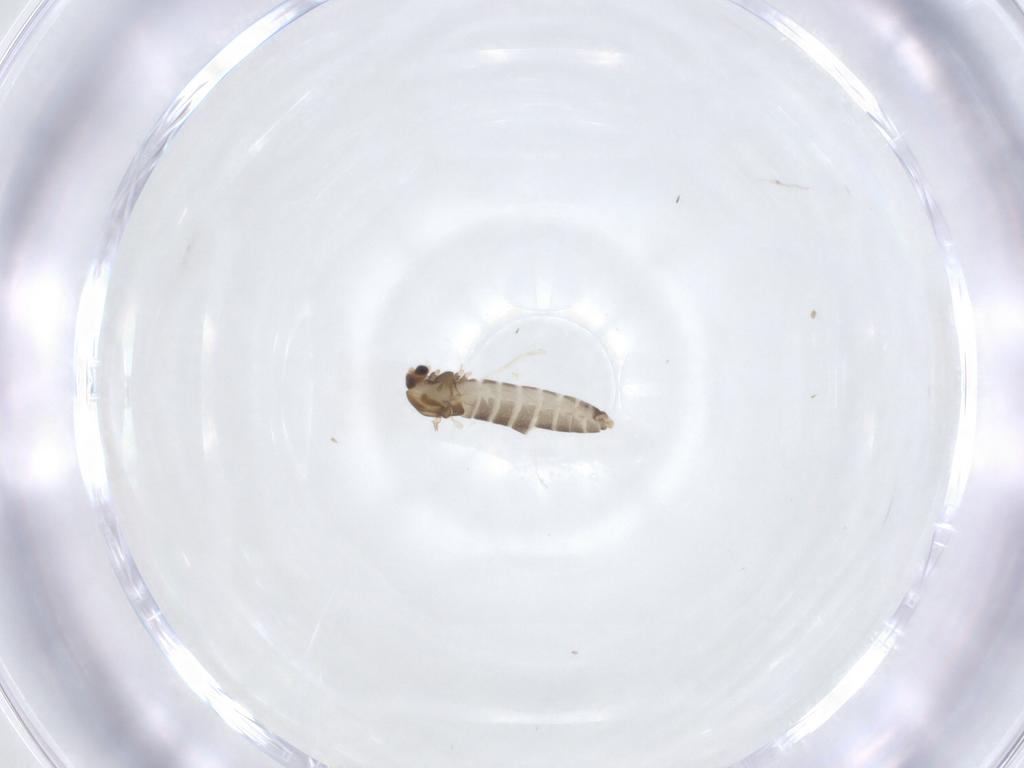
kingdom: Animalia
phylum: Arthropoda
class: Insecta
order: Diptera
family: Chironomidae
